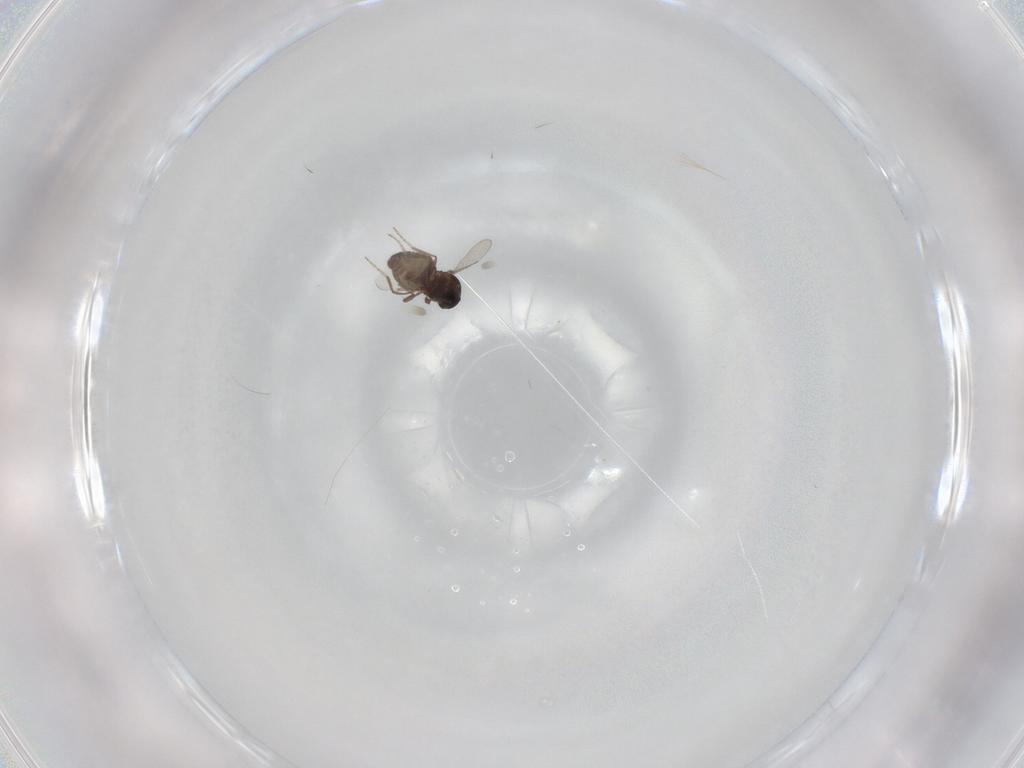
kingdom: Animalia
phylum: Arthropoda
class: Insecta
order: Diptera
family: Ceratopogonidae
